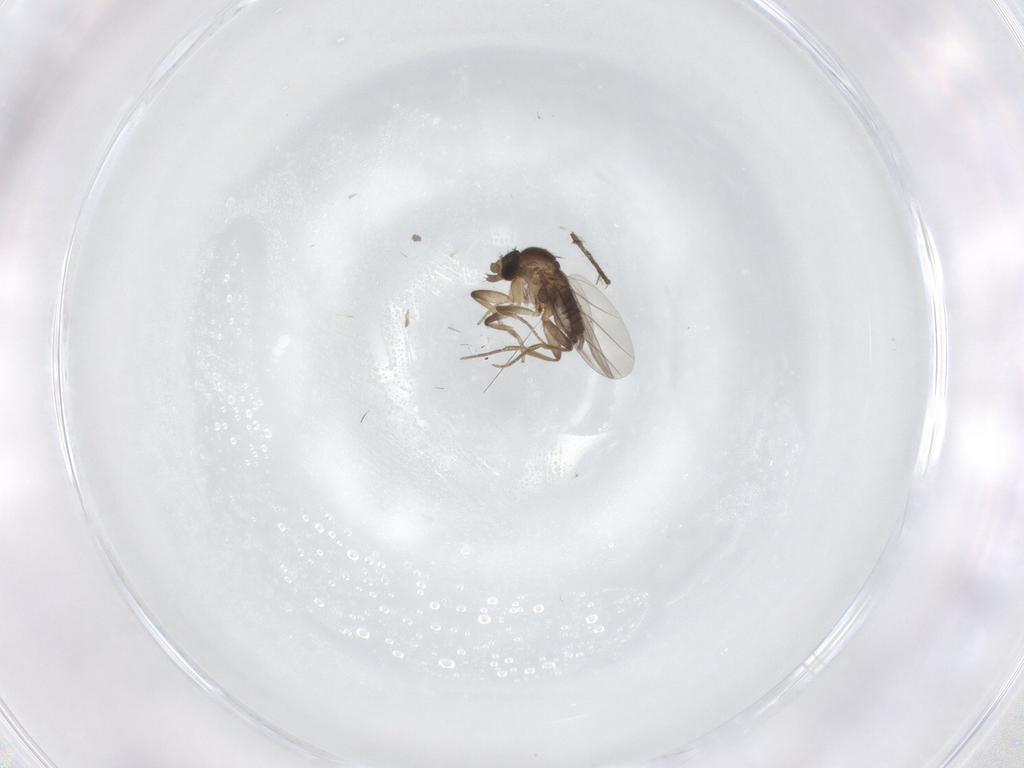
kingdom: Animalia
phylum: Arthropoda
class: Insecta
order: Diptera
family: Phoridae
